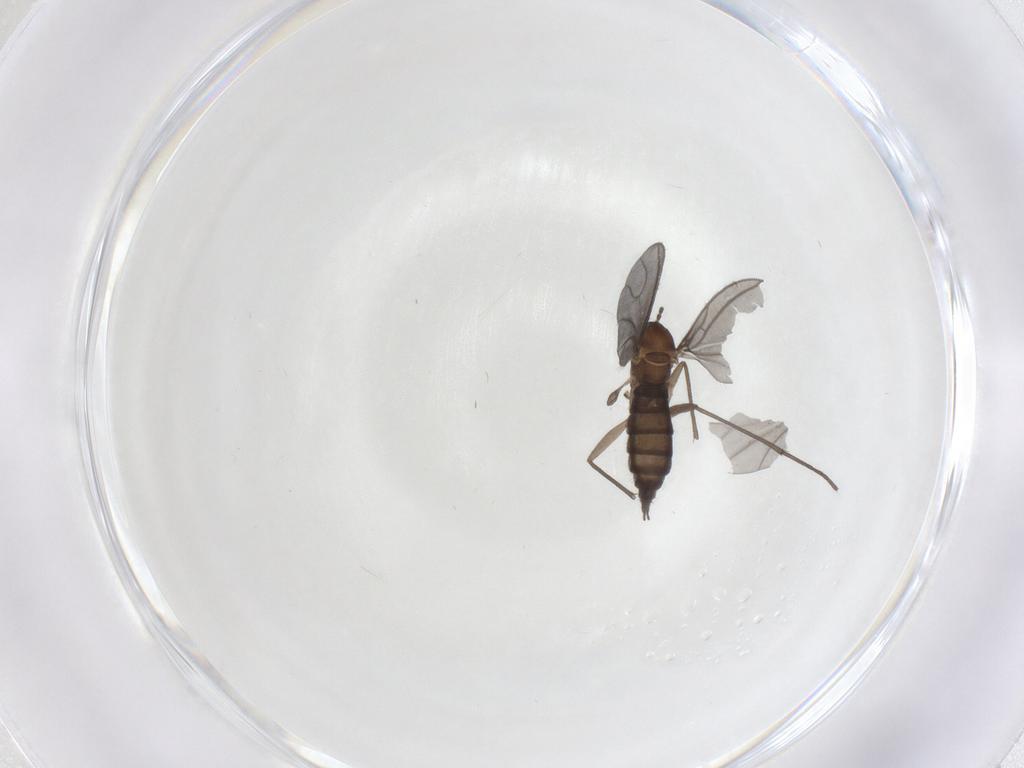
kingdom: Animalia
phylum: Arthropoda
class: Insecta
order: Diptera
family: Sciaridae
